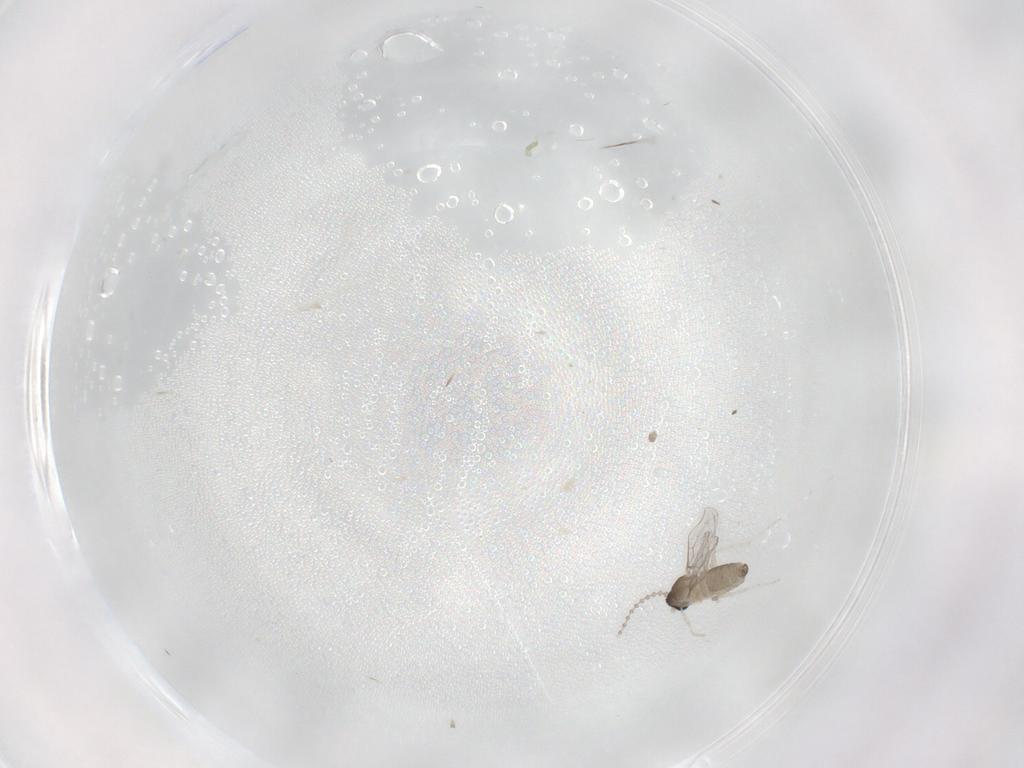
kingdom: Animalia
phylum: Arthropoda
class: Insecta
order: Diptera
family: Cecidomyiidae
